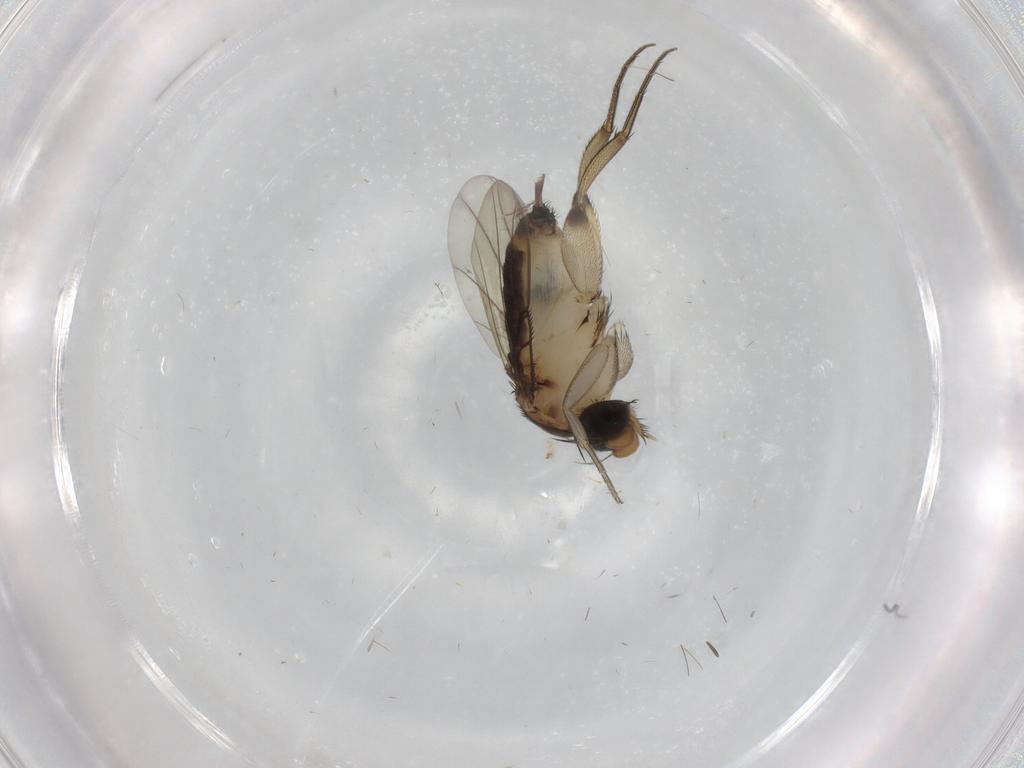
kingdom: Animalia
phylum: Arthropoda
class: Insecta
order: Diptera
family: Phoridae
